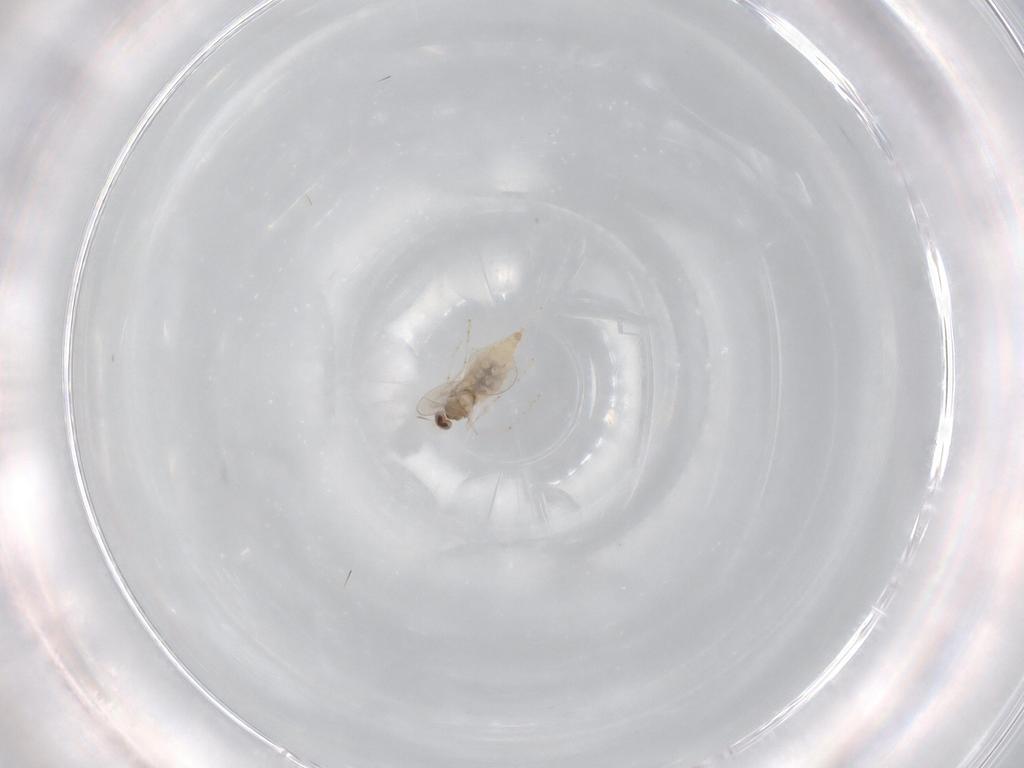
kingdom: Animalia
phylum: Arthropoda
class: Insecta
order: Diptera
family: Cecidomyiidae
